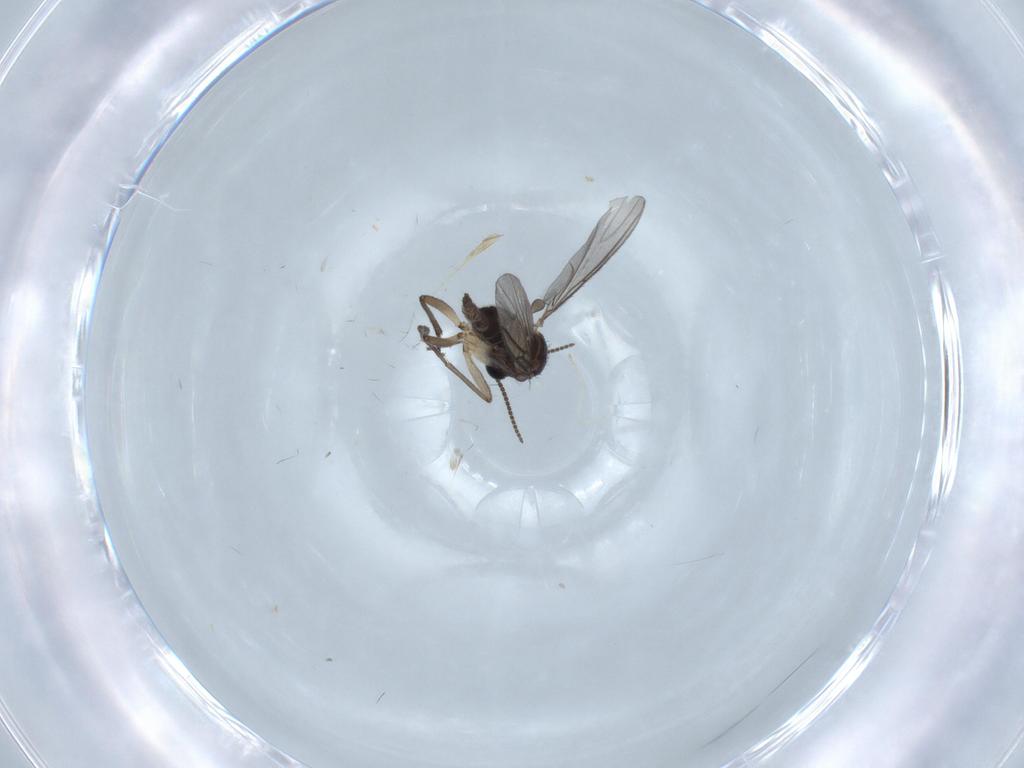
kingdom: Animalia
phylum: Arthropoda
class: Insecta
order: Diptera
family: Sciaridae
